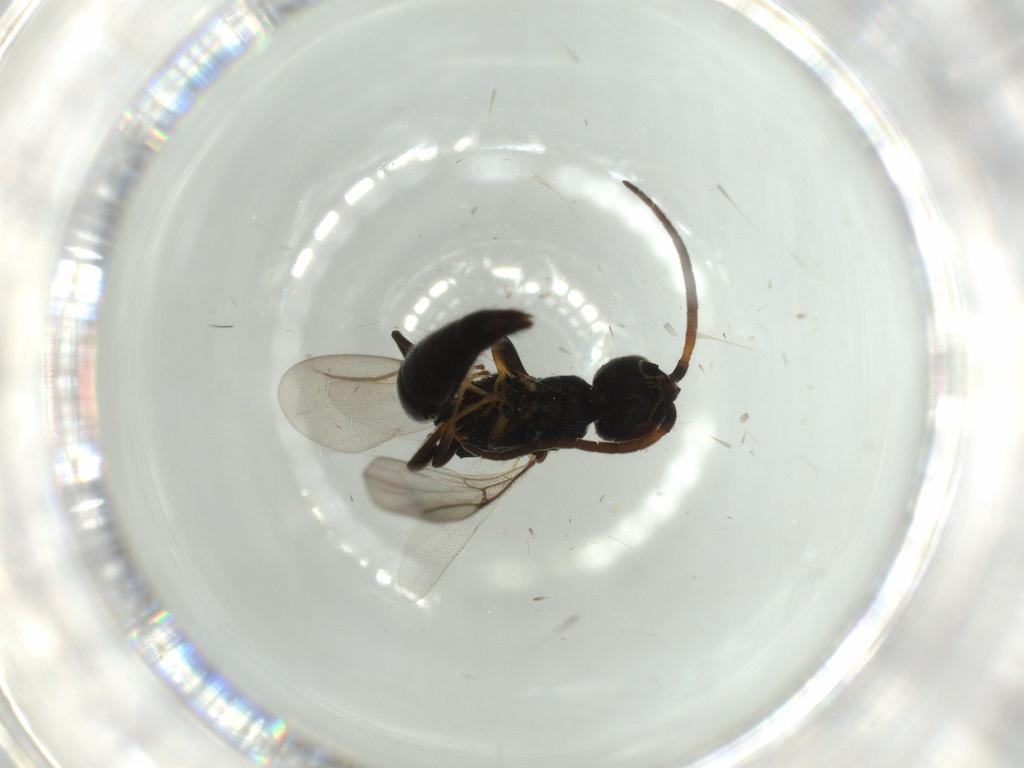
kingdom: Animalia
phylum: Arthropoda
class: Insecta
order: Hymenoptera
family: Bethylidae
